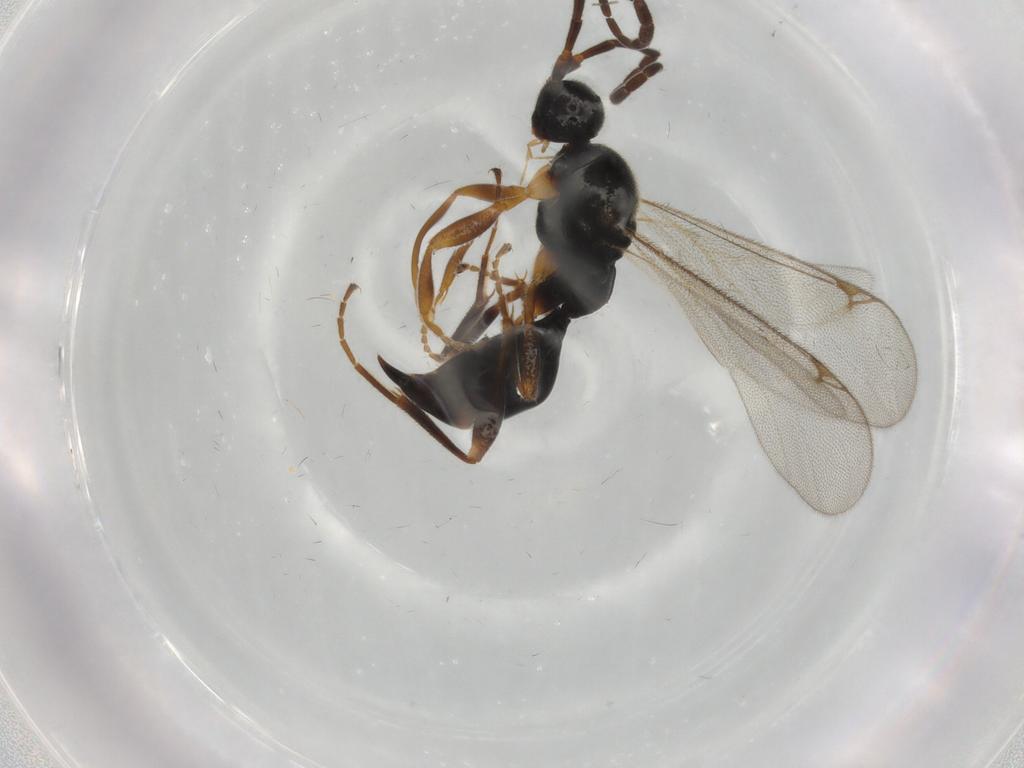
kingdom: Animalia
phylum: Arthropoda
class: Insecta
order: Hymenoptera
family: Proctotrupidae
